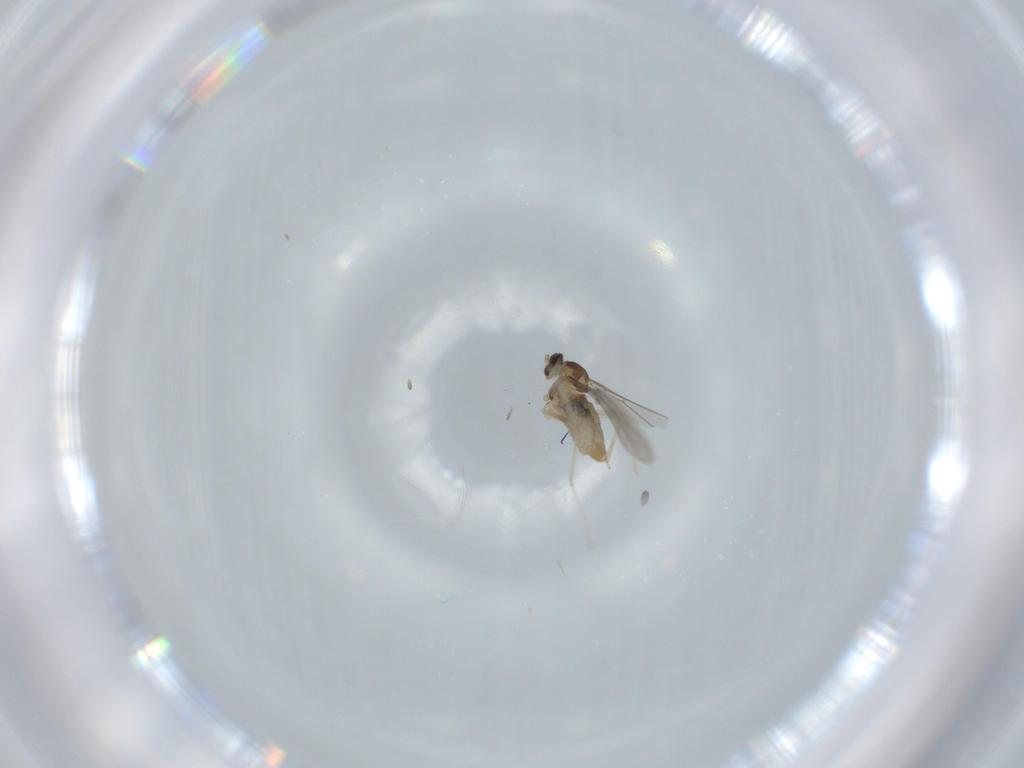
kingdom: Animalia
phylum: Arthropoda
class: Insecta
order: Diptera
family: Cecidomyiidae
